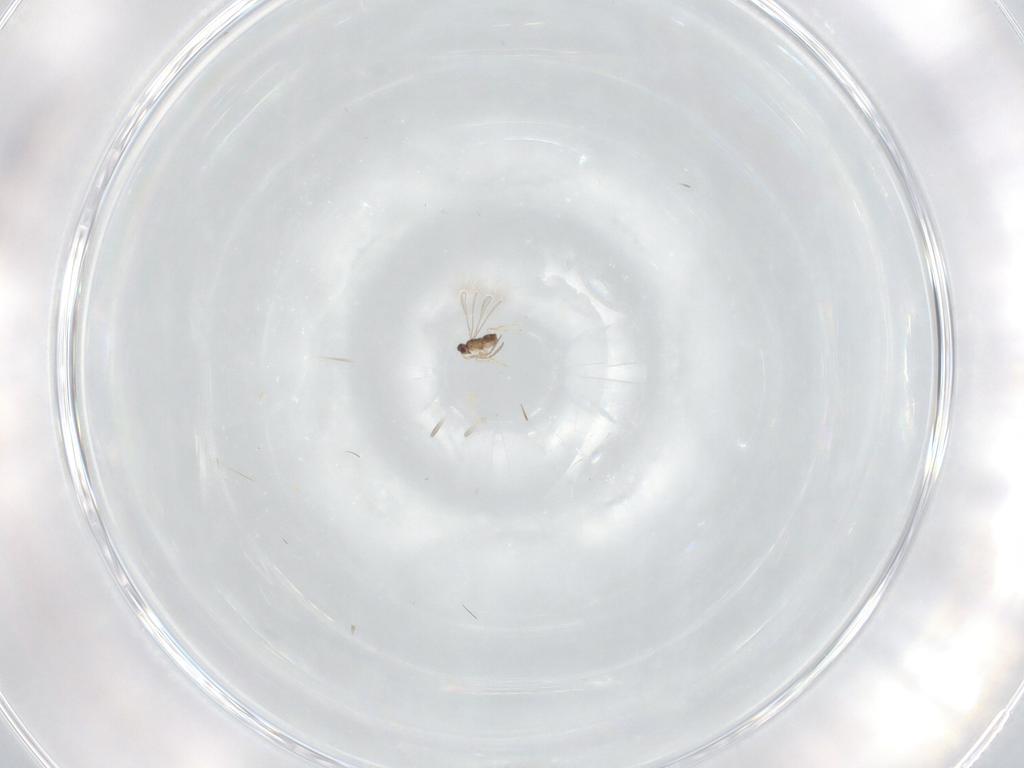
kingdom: Animalia
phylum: Arthropoda
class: Insecta
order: Hymenoptera
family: Mymaridae
